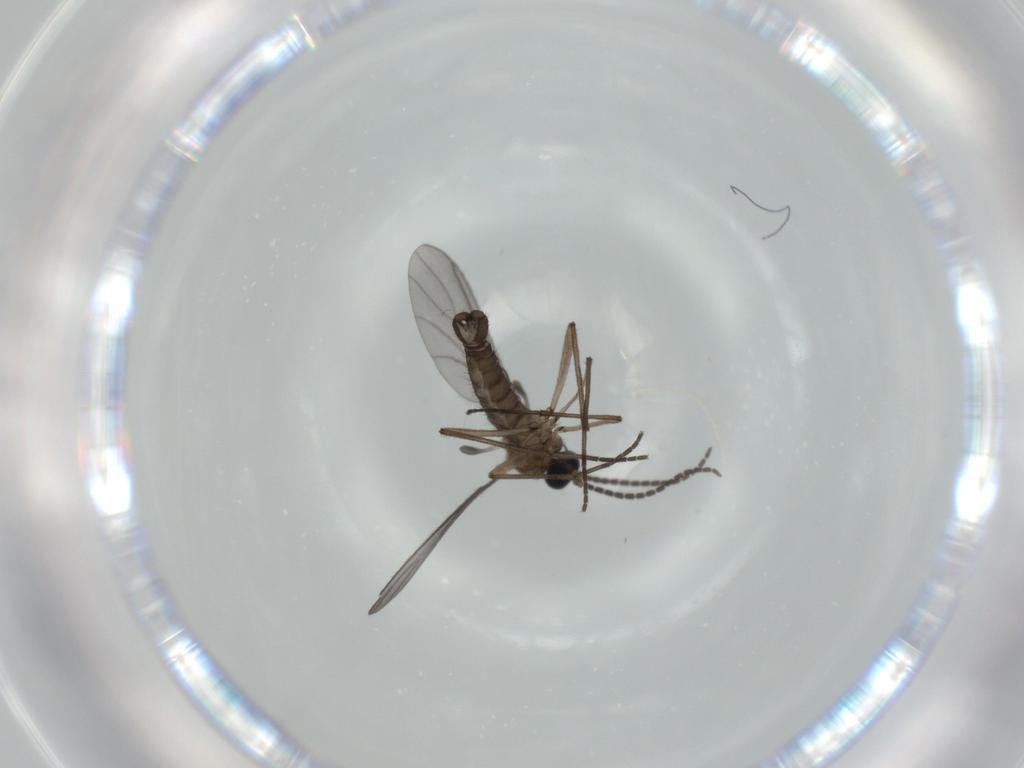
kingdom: Animalia
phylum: Arthropoda
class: Insecta
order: Diptera
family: Sciaridae
